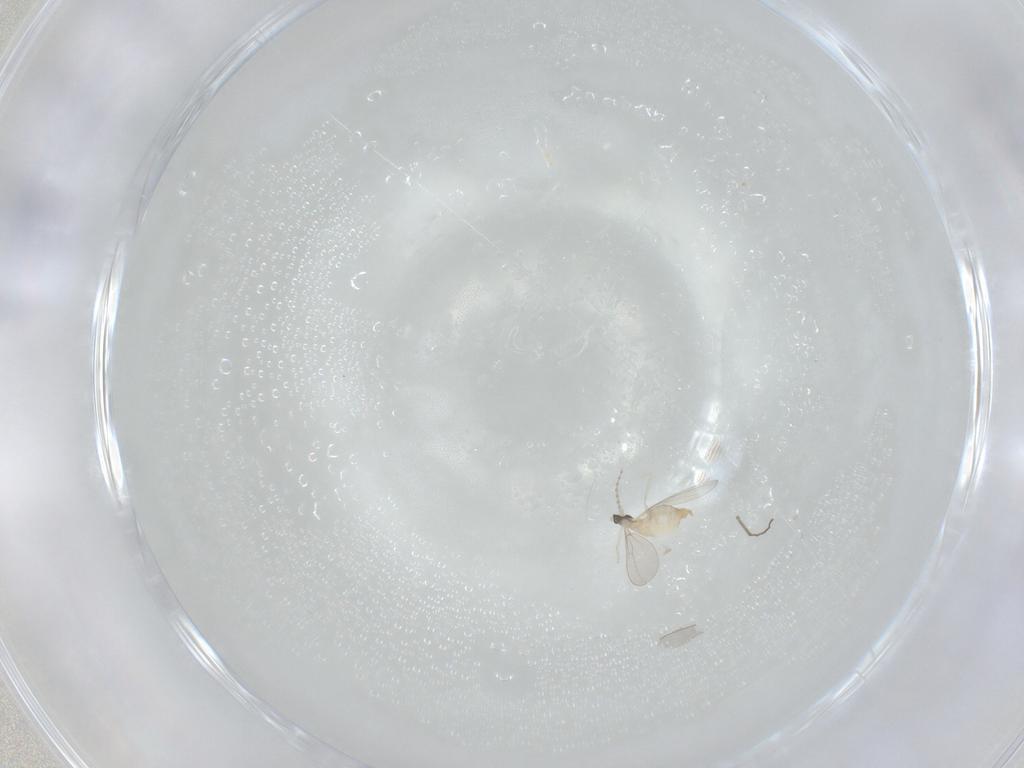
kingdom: Animalia
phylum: Arthropoda
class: Insecta
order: Diptera
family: Cecidomyiidae
